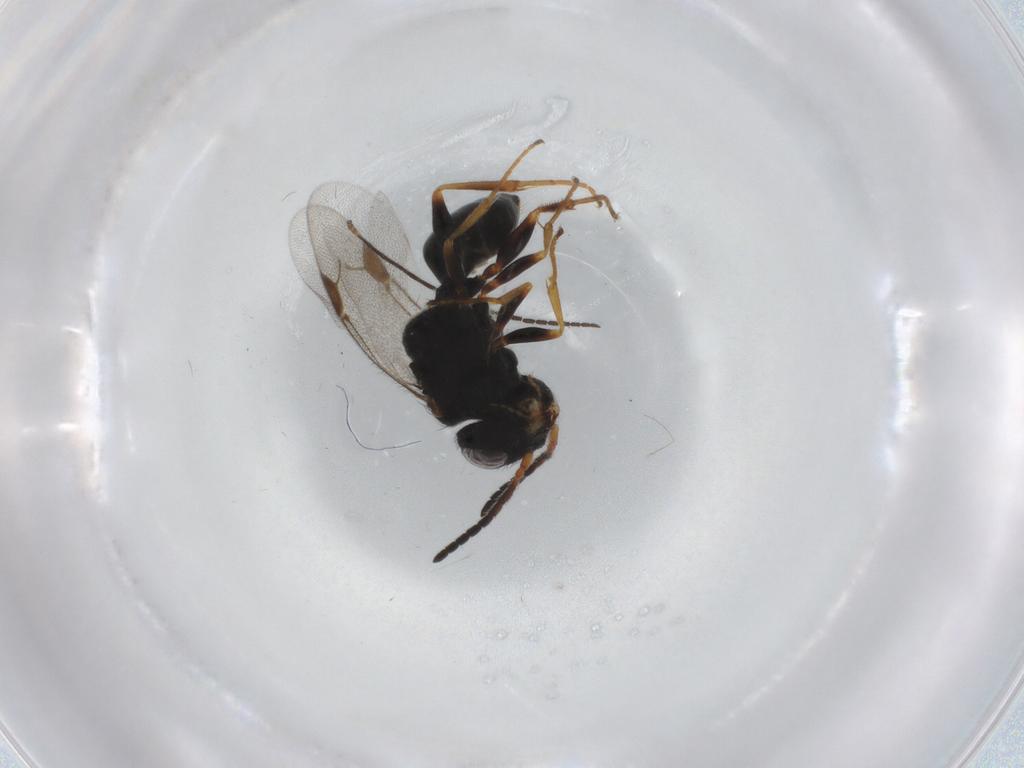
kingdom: Animalia
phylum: Arthropoda
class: Insecta
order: Hymenoptera
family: Dryinidae
